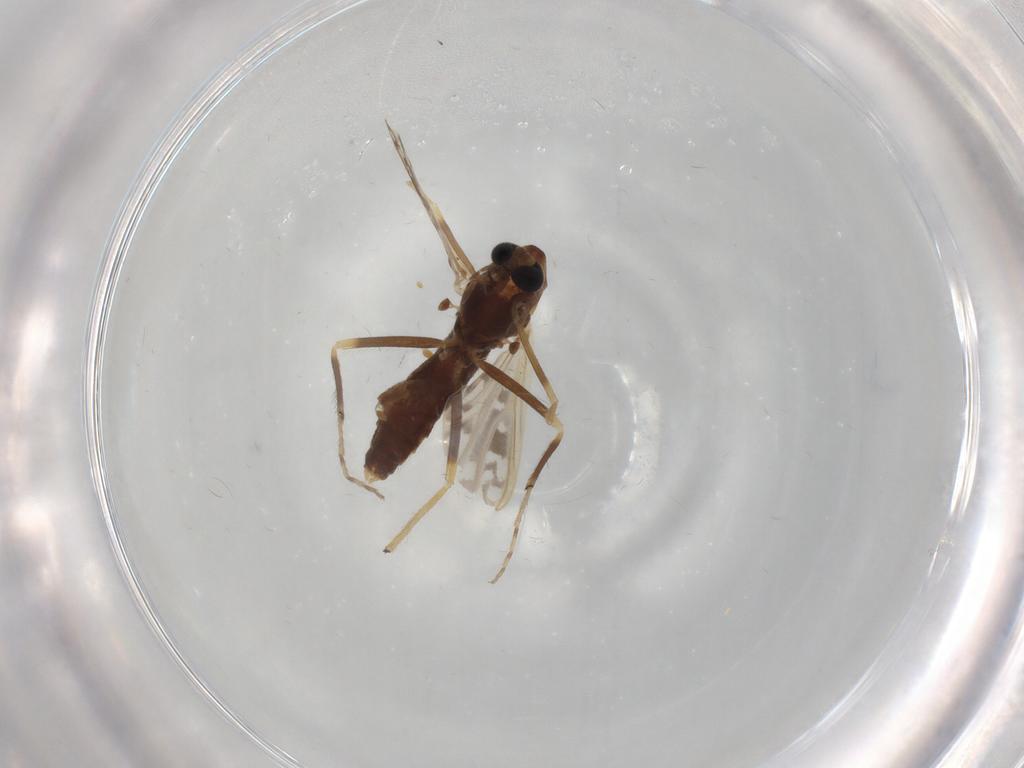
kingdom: Animalia
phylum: Arthropoda
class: Insecta
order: Diptera
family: Chironomidae
